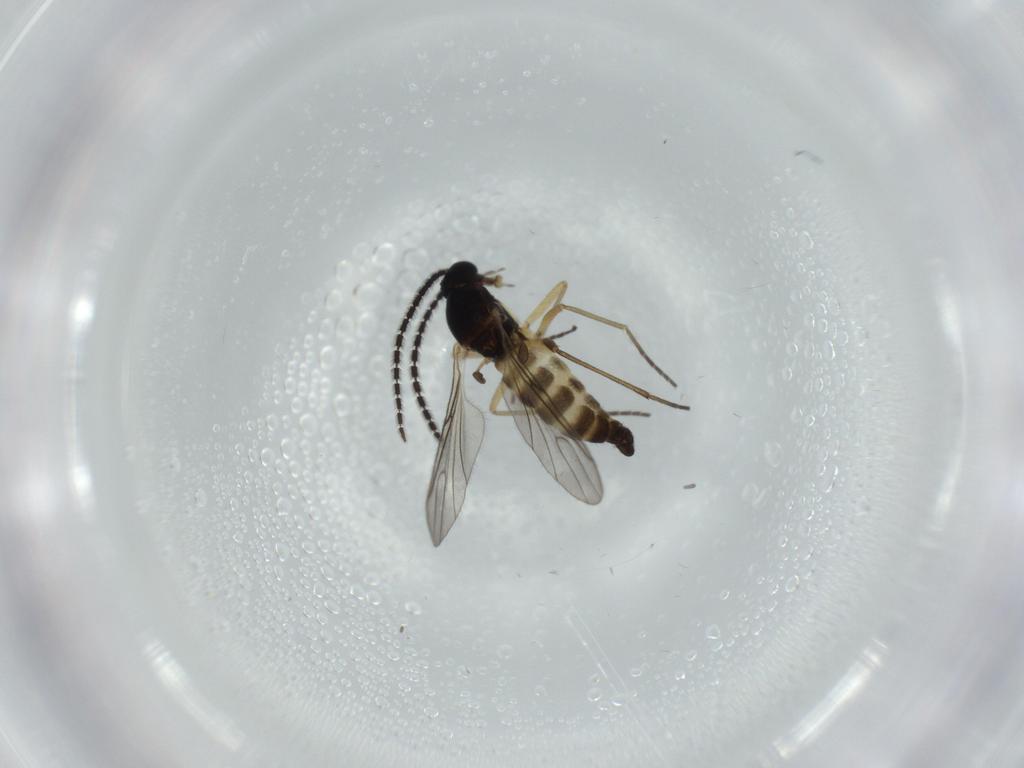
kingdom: Animalia
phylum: Arthropoda
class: Insecta
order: Diptera
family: Sciaridae
